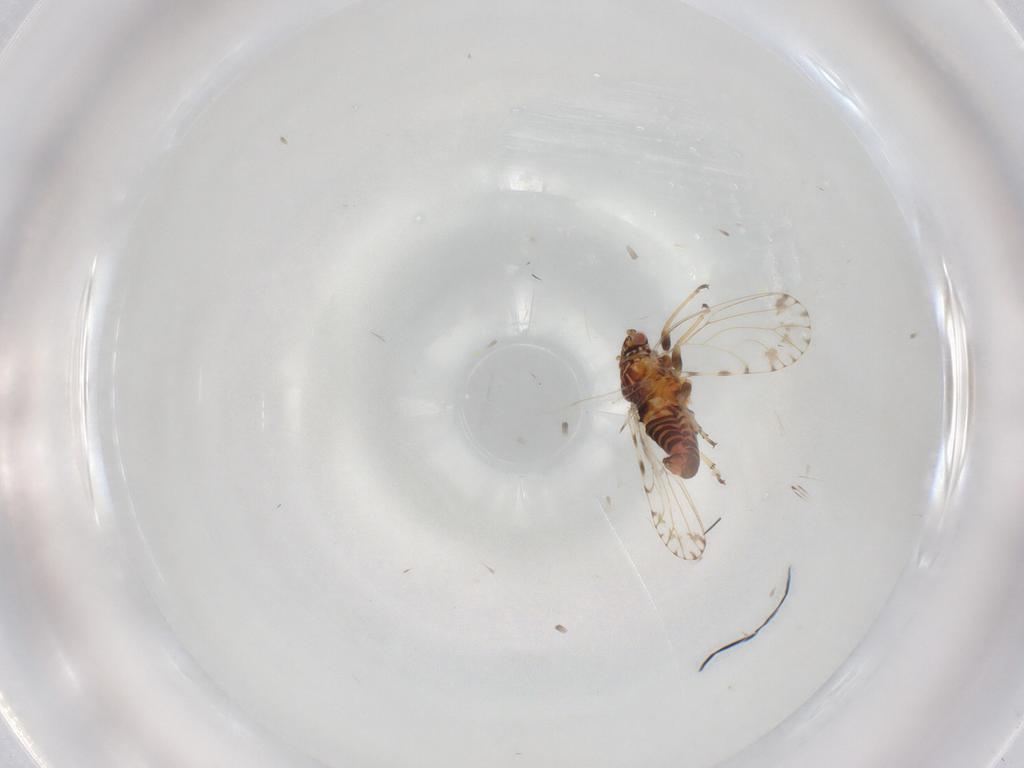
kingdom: Animalia
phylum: Arthropoda
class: Insecta
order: Hemiptera
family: Psyllidae
